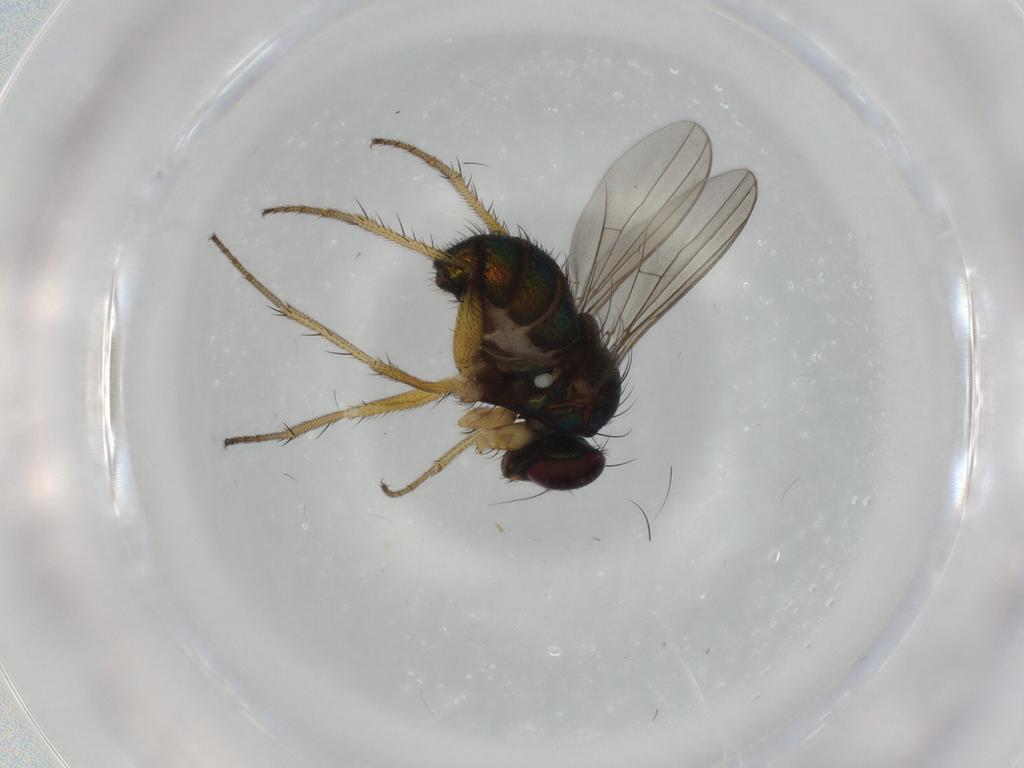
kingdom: Animalia
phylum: Arthropoda
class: Insecta
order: Diptera
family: Dolichopodidae
